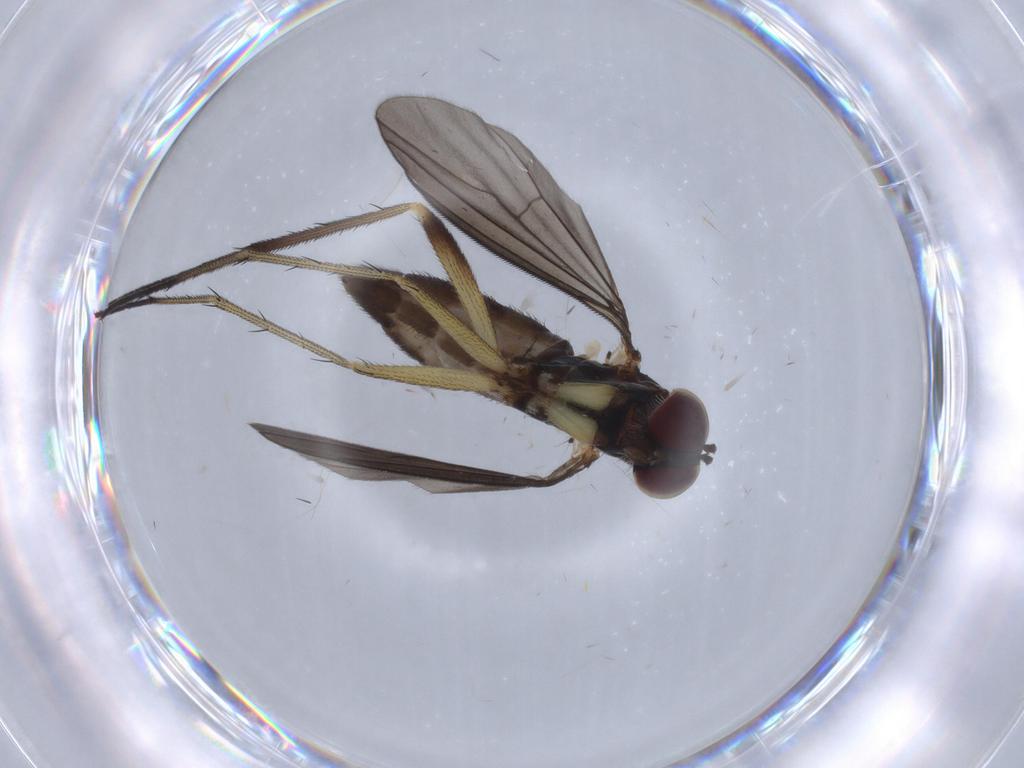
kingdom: Animalia
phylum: Arthropoda
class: Insecta
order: Diptera
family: Dolichopodidae
